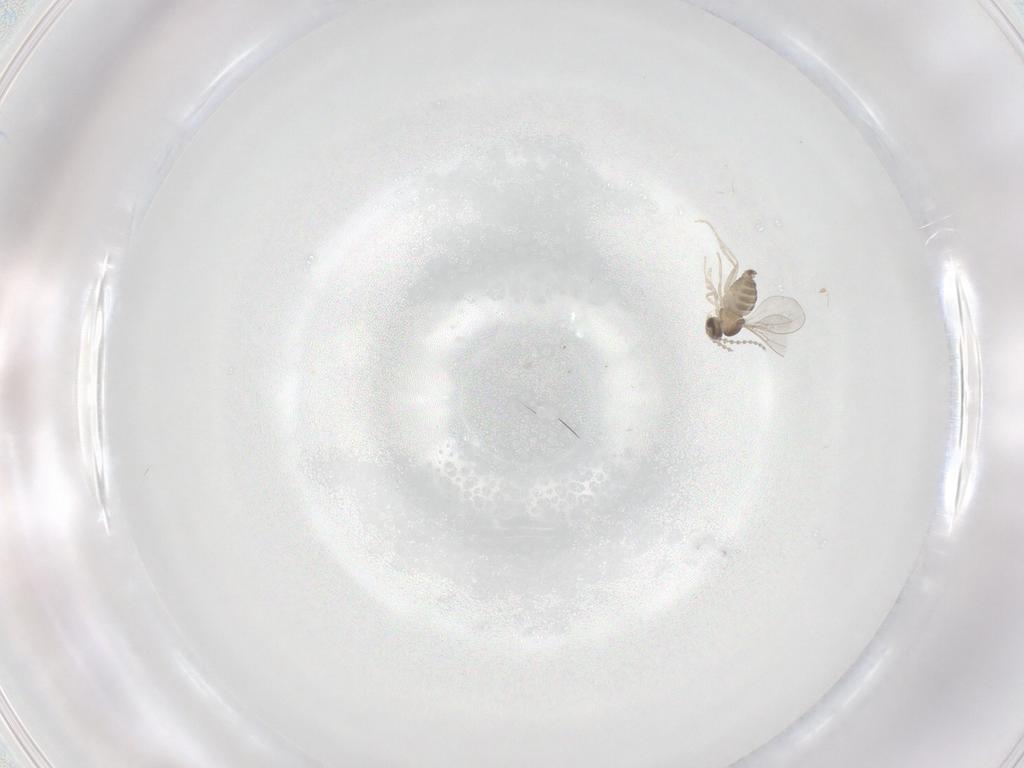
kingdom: Animalia
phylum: Arthropoda
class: Insecta
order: Diptera
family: Cecidomyiidae
